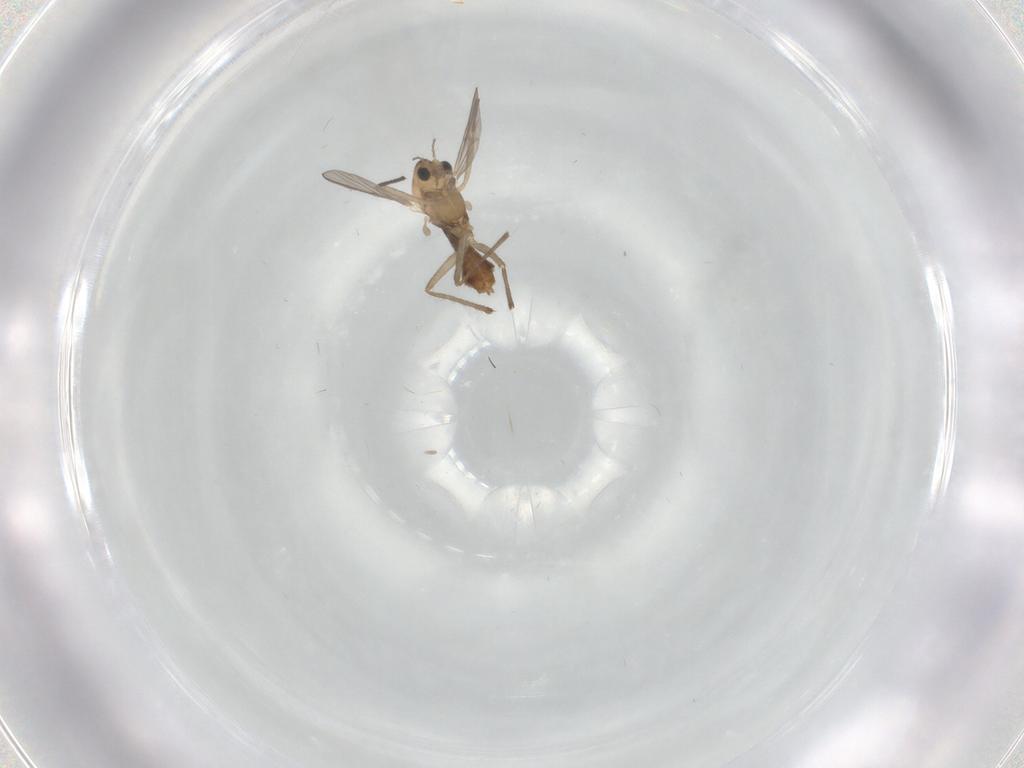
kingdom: Animalia
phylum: Arthropoda
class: Insecta
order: Diptera
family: Chironomidae
